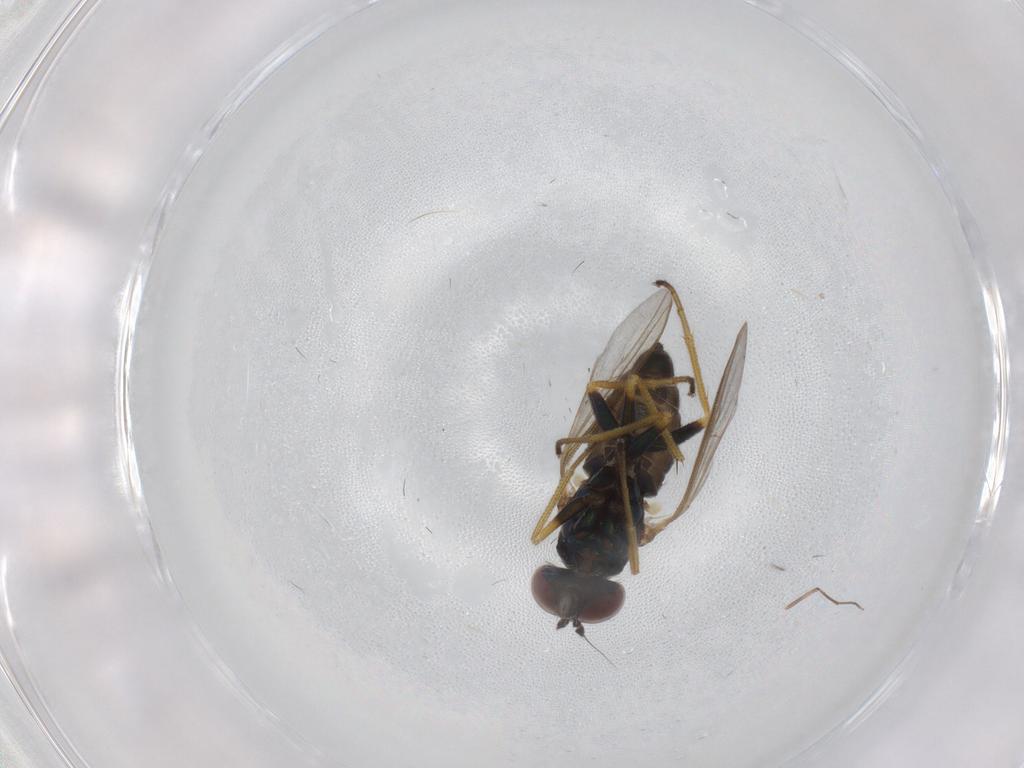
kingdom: Animalia
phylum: Arthropoda
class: Insecta
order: Diptera
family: Dolichopodidae
